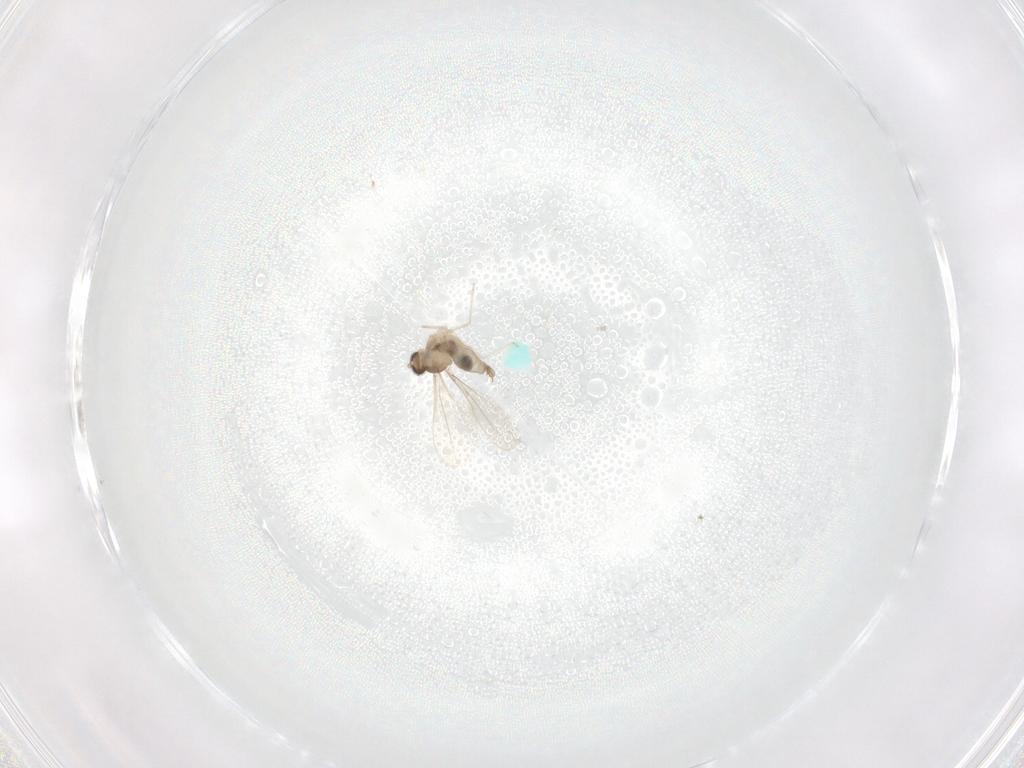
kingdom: Animalia
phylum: Arthropoda
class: Insecta
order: Diptera
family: Cecidomyiidae
